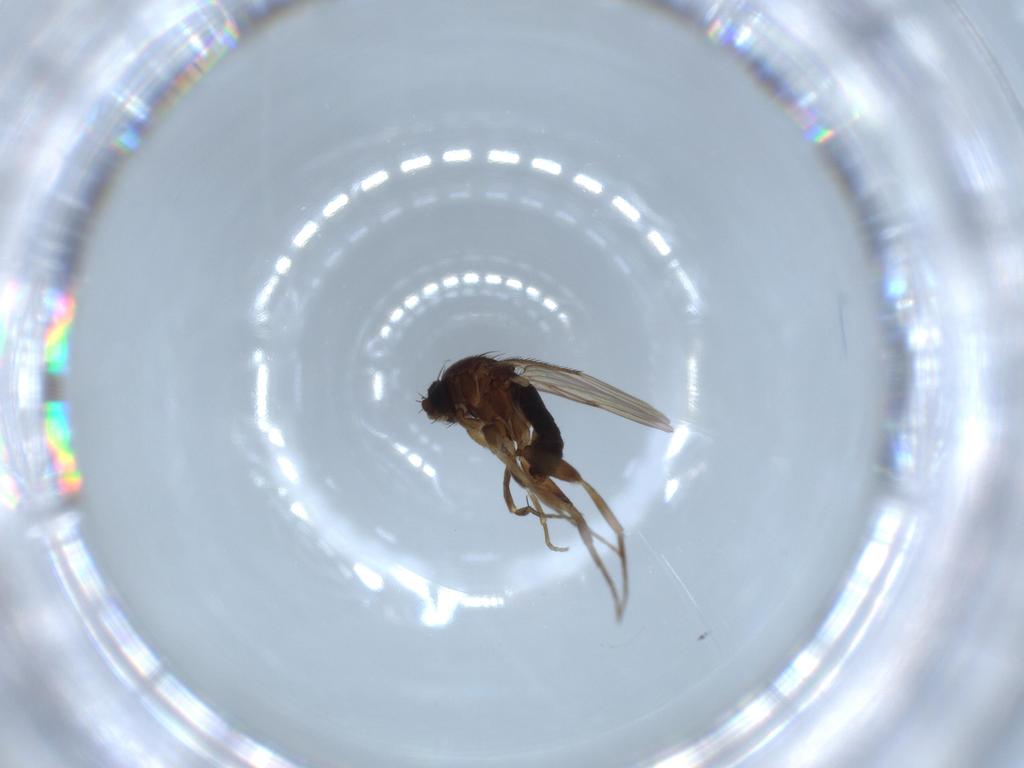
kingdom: Animalia
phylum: Arthropoda
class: Insecta
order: Diptera
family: Phoridae
